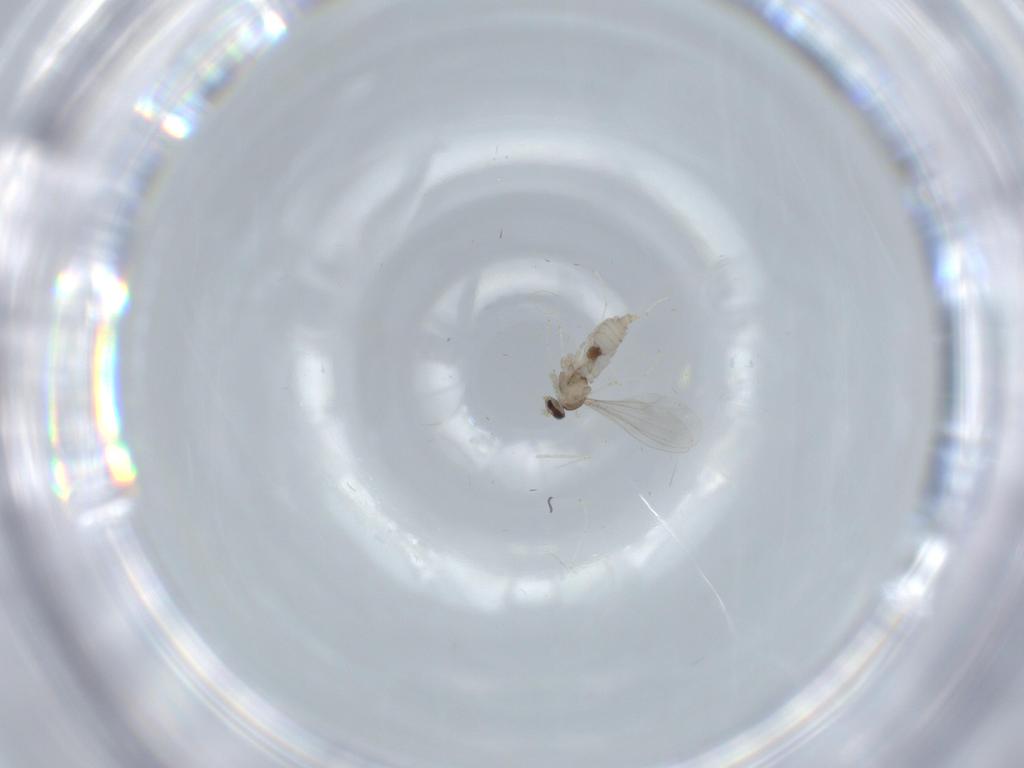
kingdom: Animalia
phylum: Arthropoda
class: Insecta
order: Diptera
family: Cecidomyiidae
